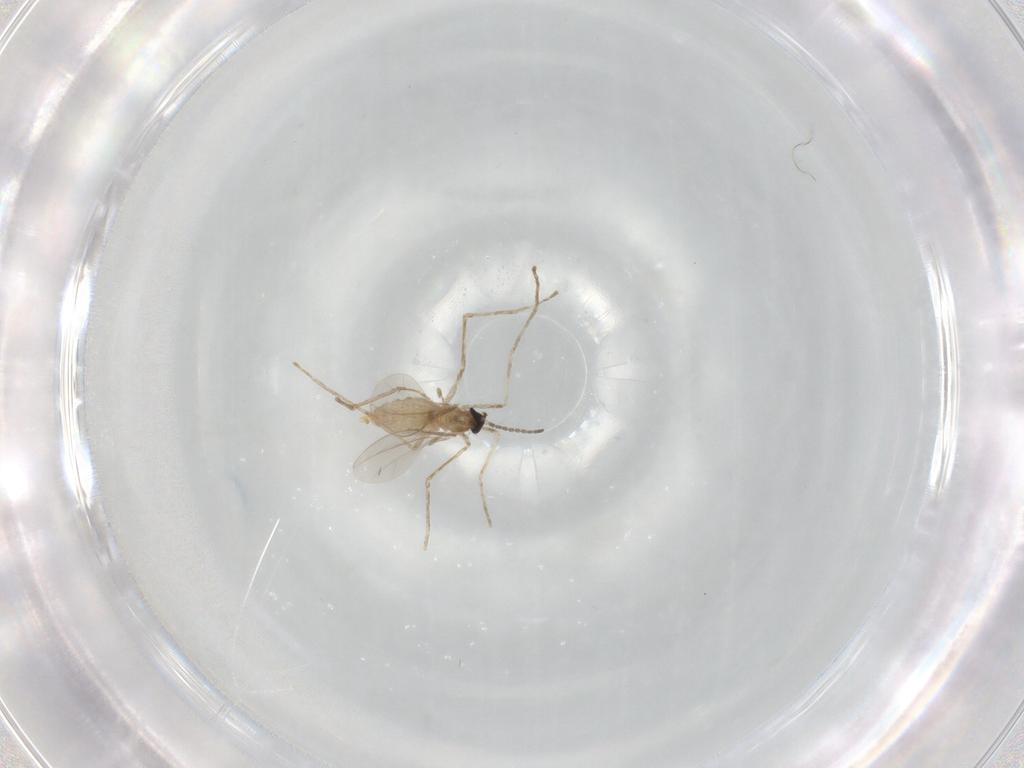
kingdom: Animalia
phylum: Arthropoda
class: Insecta
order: Diptera
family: Cecidomyiidae
